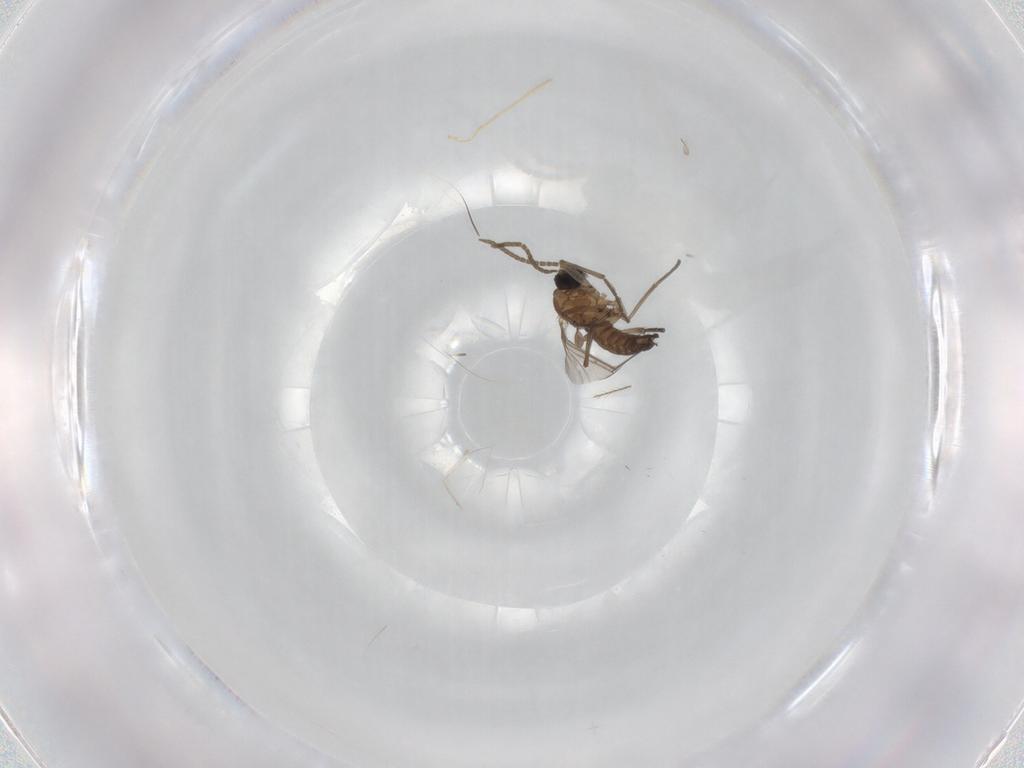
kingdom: Animalia
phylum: Arthropoda
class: Insecta
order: Diptera
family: Sciaridae
